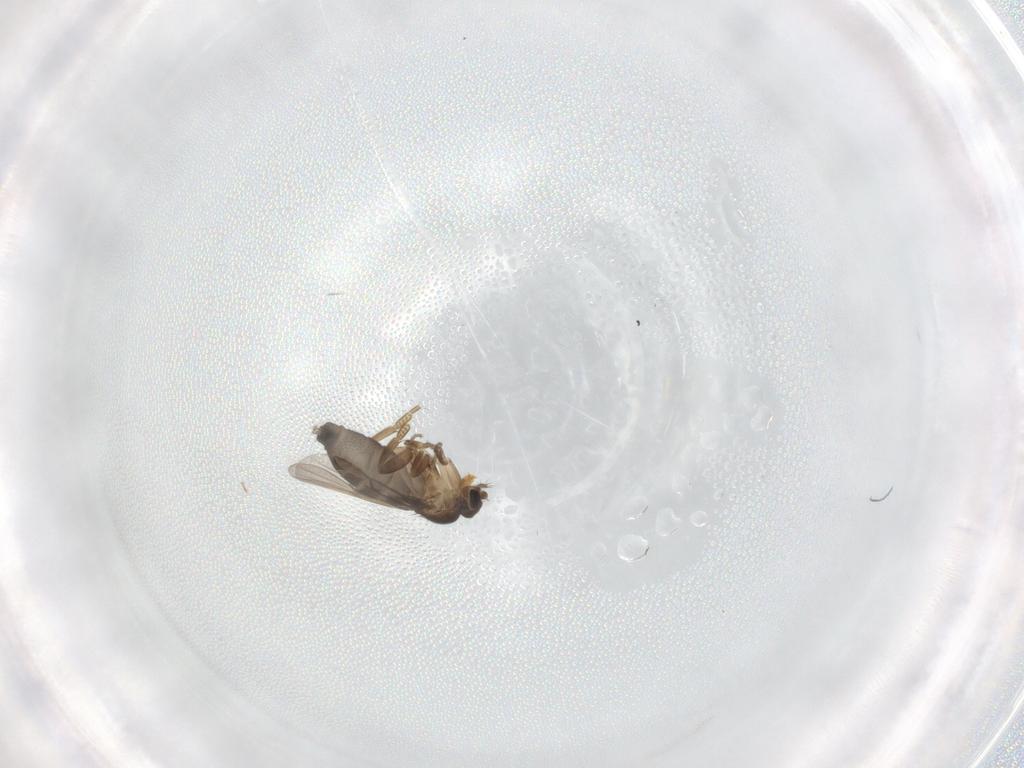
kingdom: Animalia
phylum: Arthropoda
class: Insecta
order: Diptera
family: Phoridae
